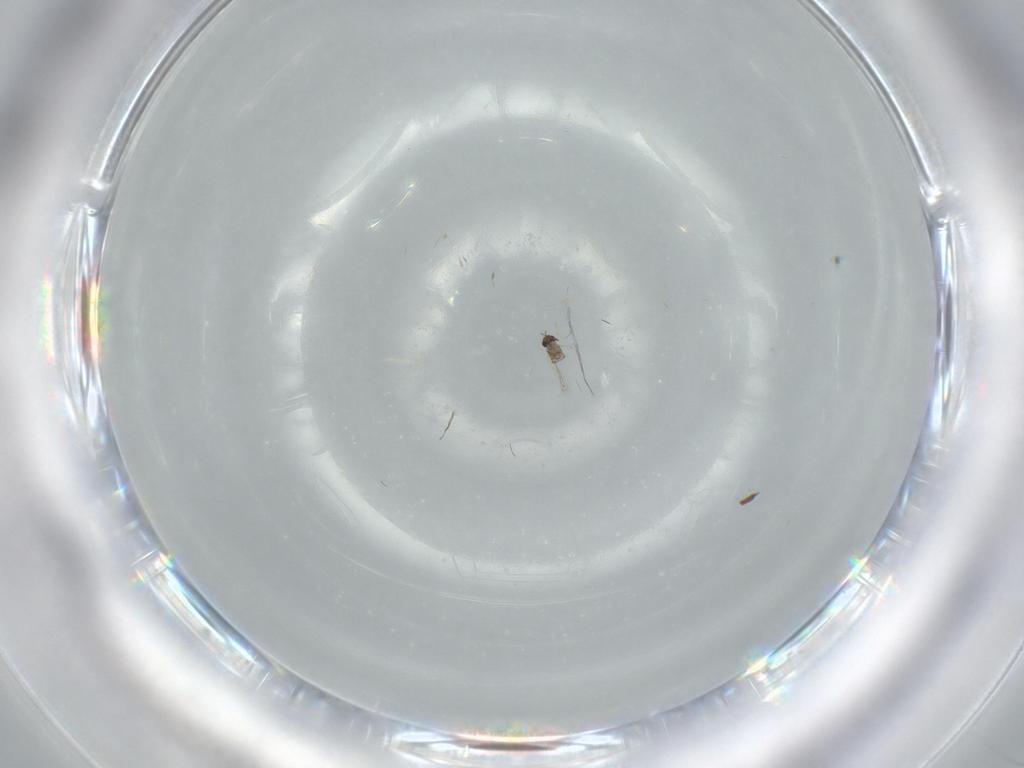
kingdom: Animalia
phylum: Arthropoda
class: Insecta
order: Hymenoptera
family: Mymaridae
